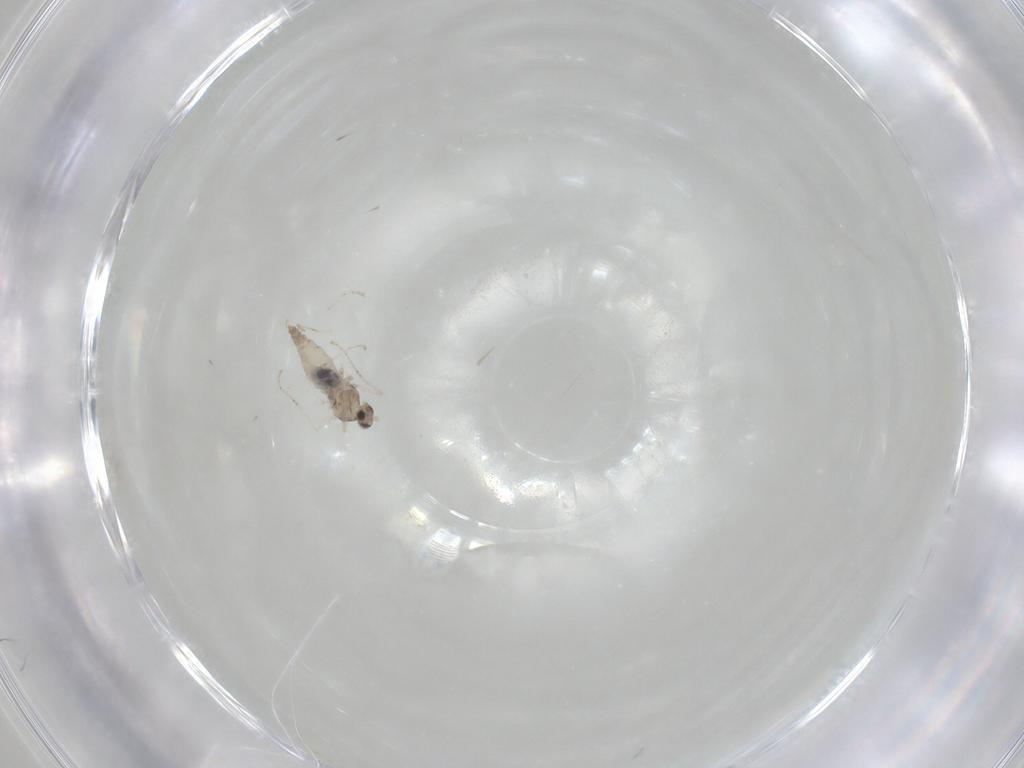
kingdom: Animalia
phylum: Arthropoda
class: Insecta
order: Diptera
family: Cecidomyiidae
